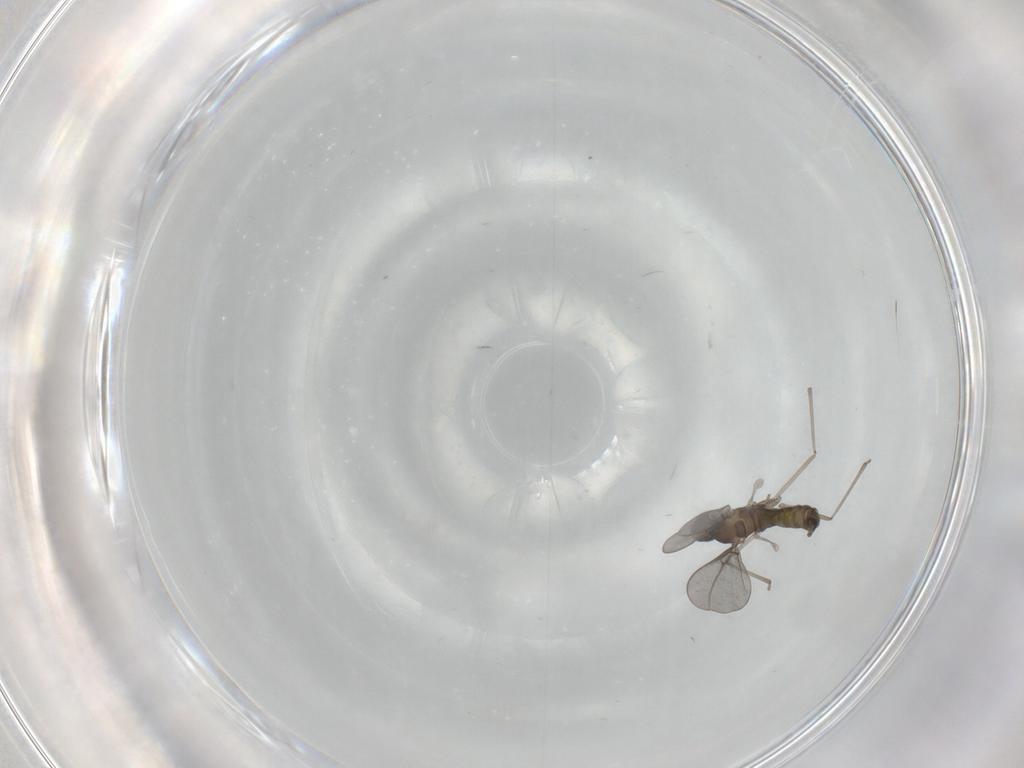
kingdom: Animalia
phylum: Arthropoda
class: Insecta
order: Diptera
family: Cecidomyiidae
